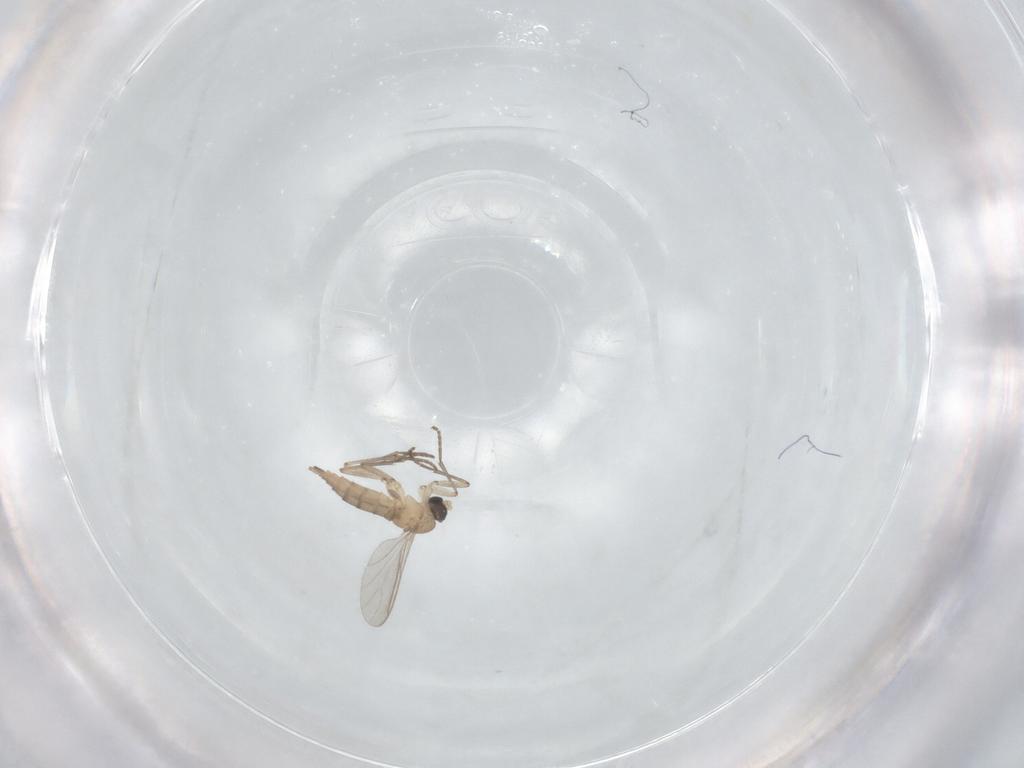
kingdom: Animalia
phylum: Arthropoda
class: Insecta
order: Diptera
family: Sciaridae
